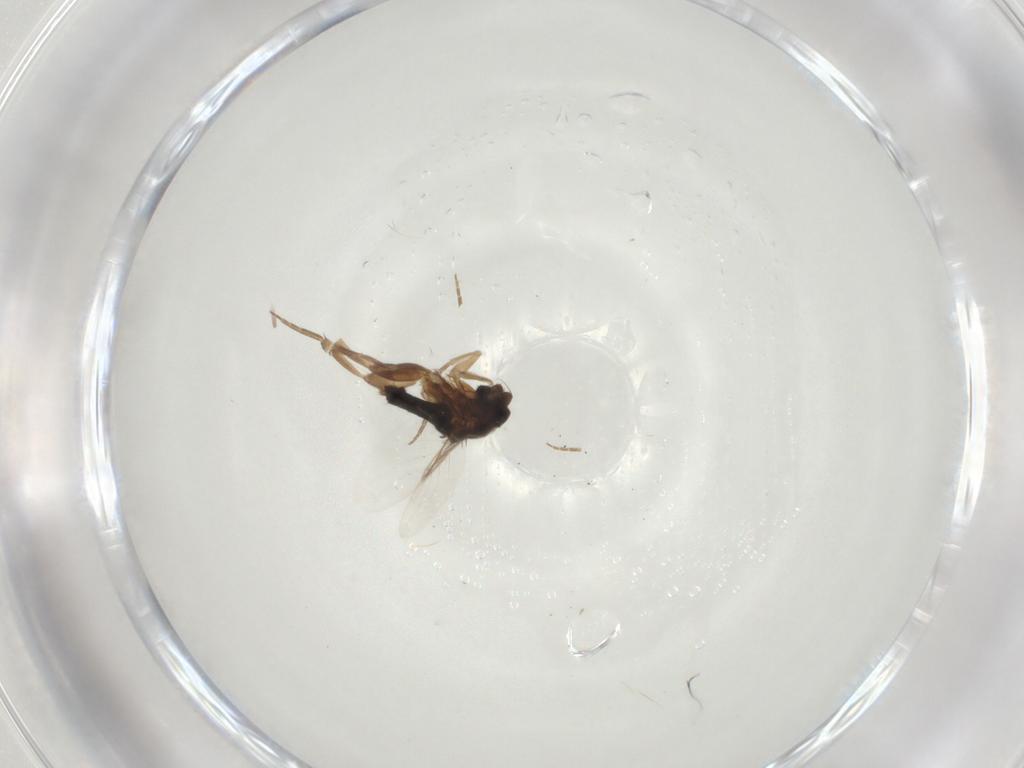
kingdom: Animalia
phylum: Arthropoda
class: Insecta
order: Diptera
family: Phoridae
